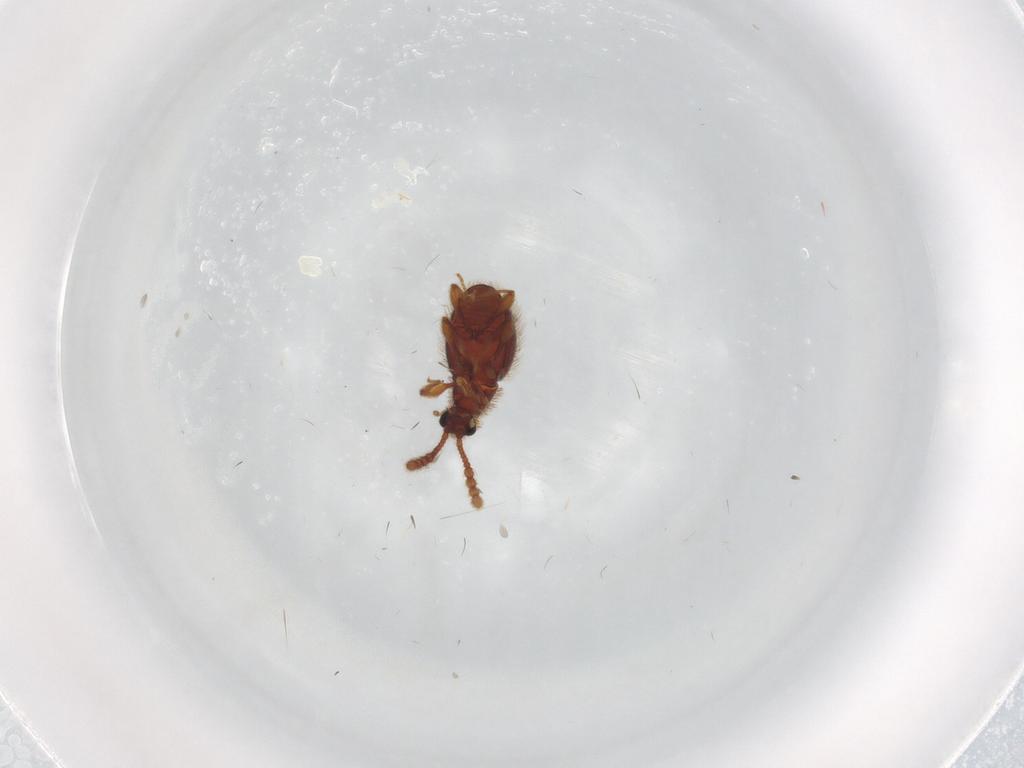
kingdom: Animalia
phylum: Arthropoda
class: Insecta
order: Coleoptera
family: Staphylinidae
